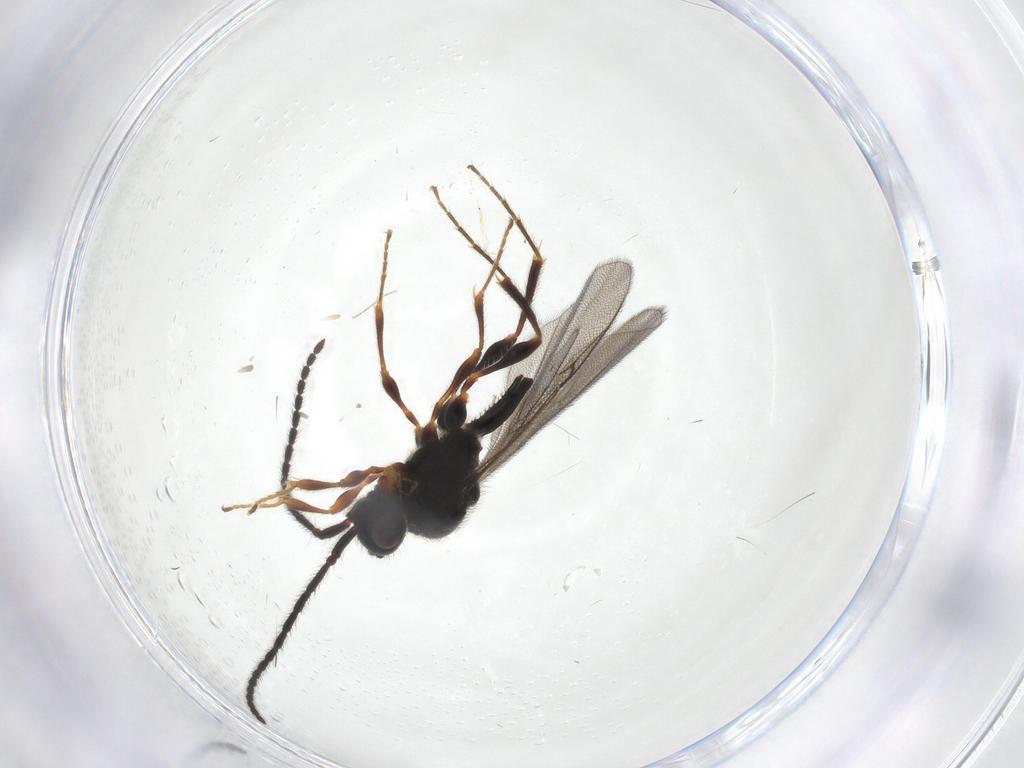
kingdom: Animalia
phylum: Arthropoda
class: Insecta
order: Hymenoptera
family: Diapriidae
